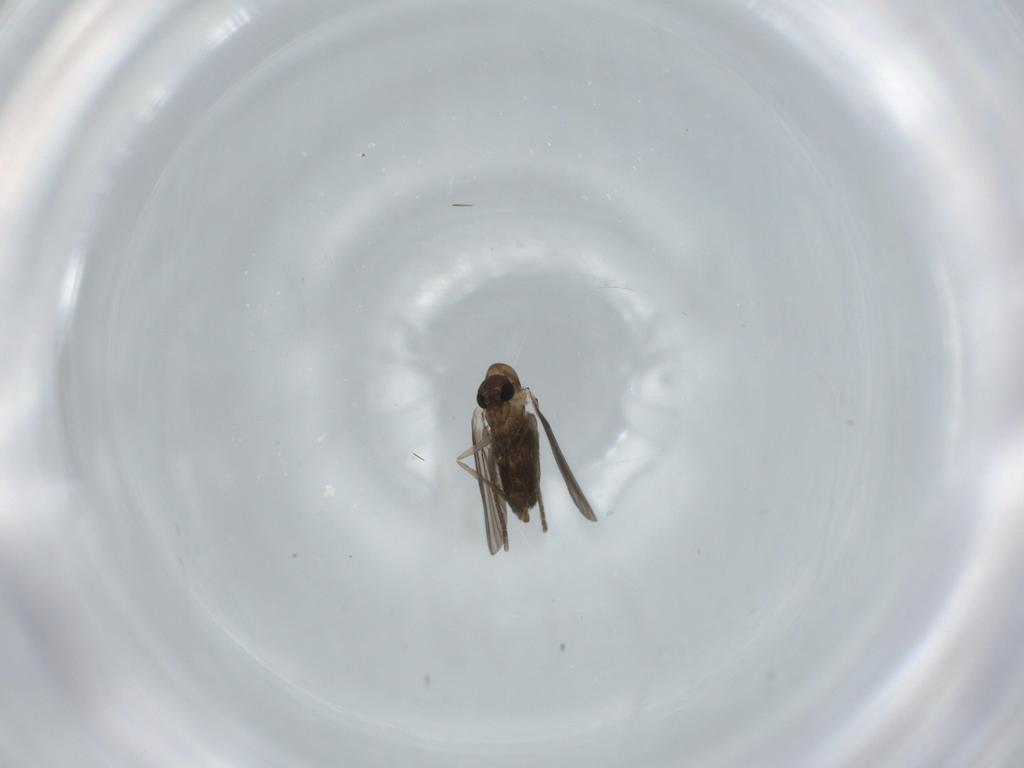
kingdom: Animalia
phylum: Arthropoda
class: Insecta
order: Diptera
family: Sciaridae
